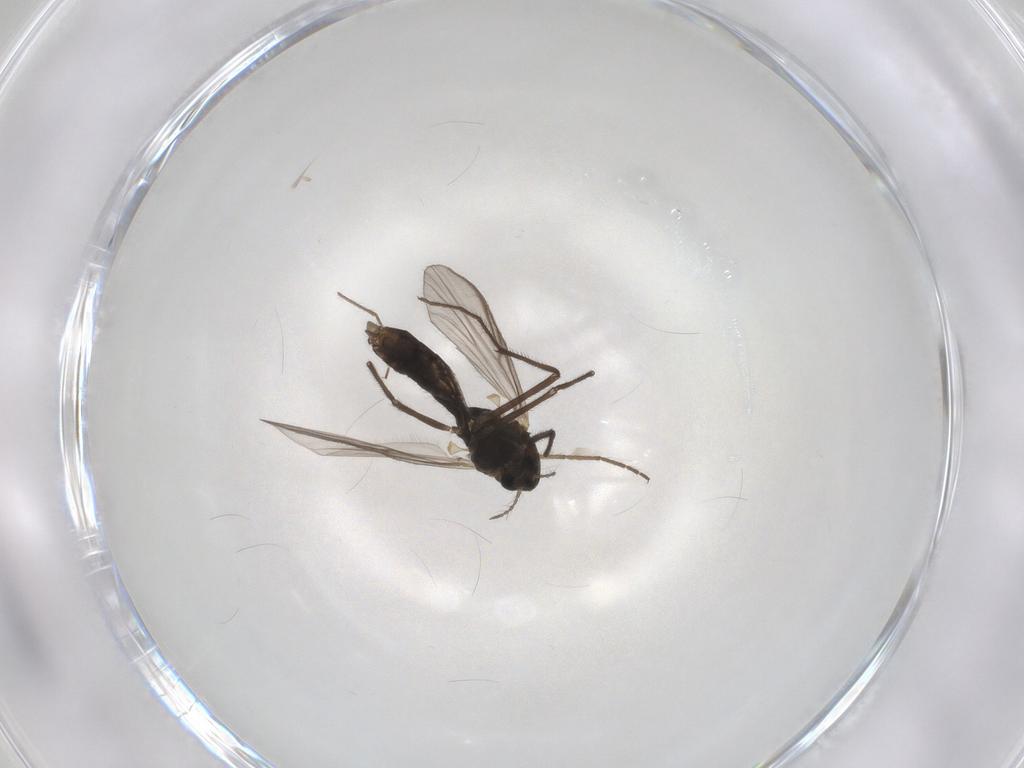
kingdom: Animalia
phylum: Arthropoda
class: Insecta
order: Diptera
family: Chironomidae
